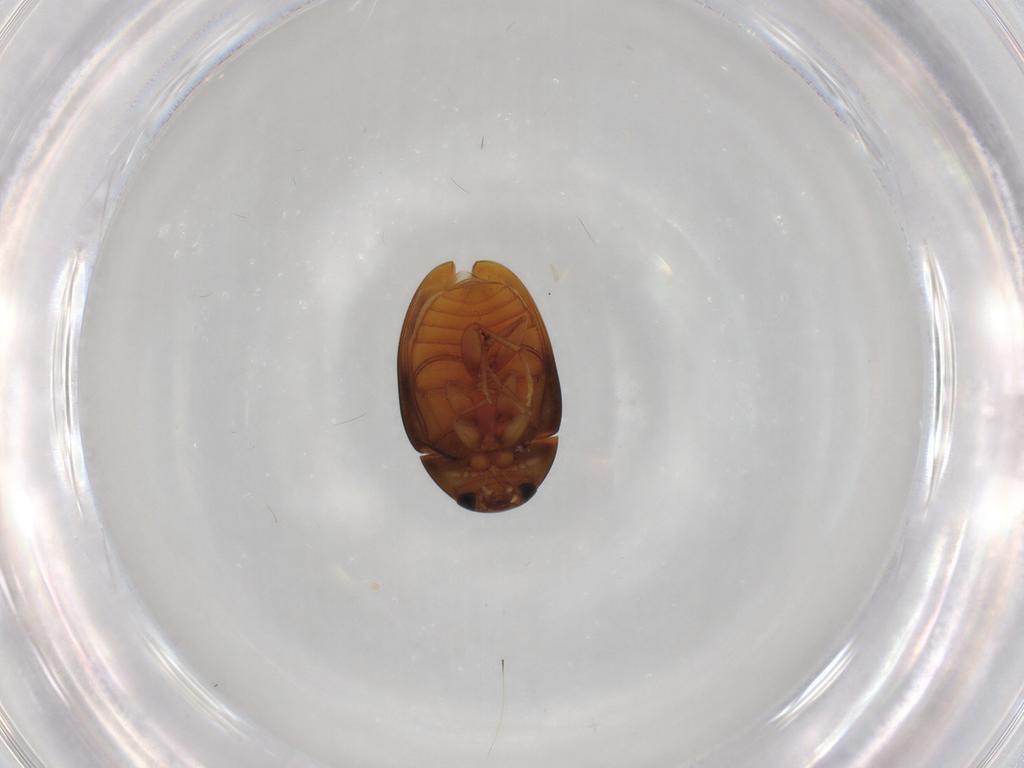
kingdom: Animalia
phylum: Arthropoda
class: Insecta
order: Coleoptera
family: Phalacridae
